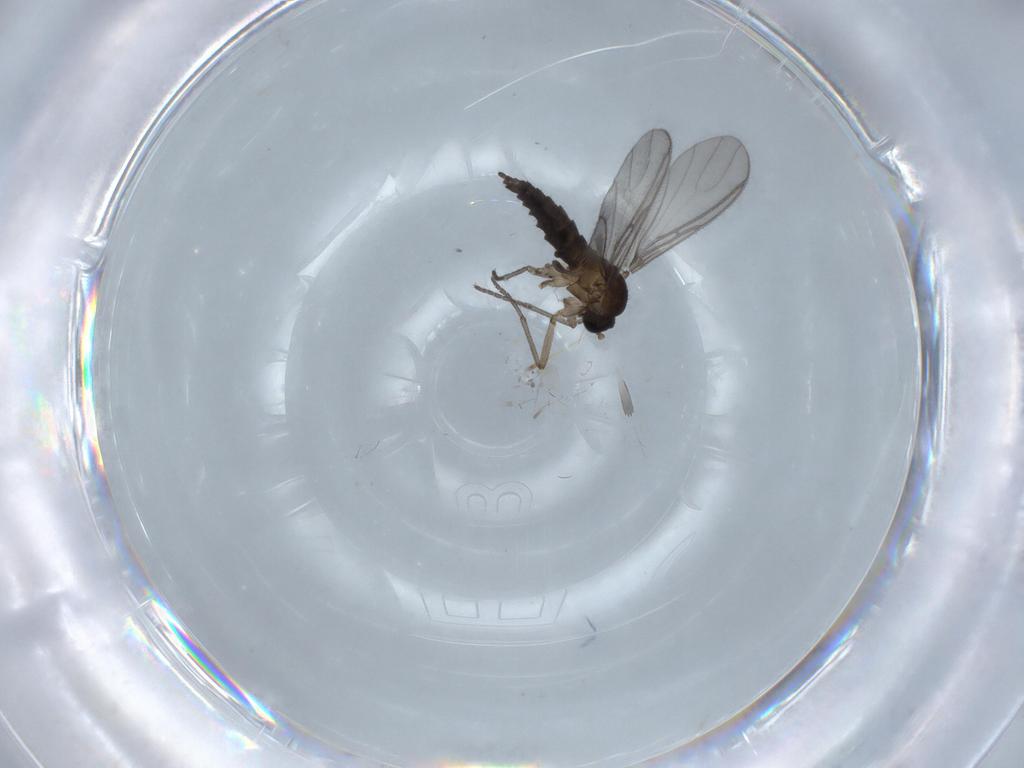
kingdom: Animalia
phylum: Arthropoda
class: Insecta
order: Diptera
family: Sciaridae
